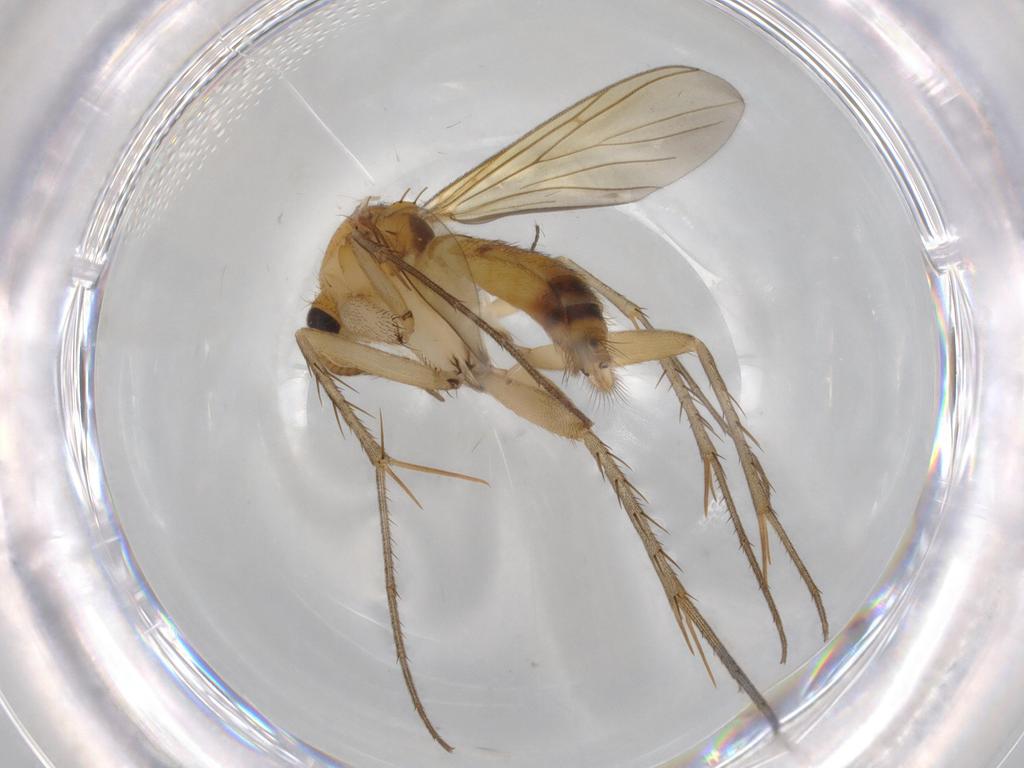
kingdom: Animalia
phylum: Arthropoda
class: Insecta
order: Diptera
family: Mycetophilidae
